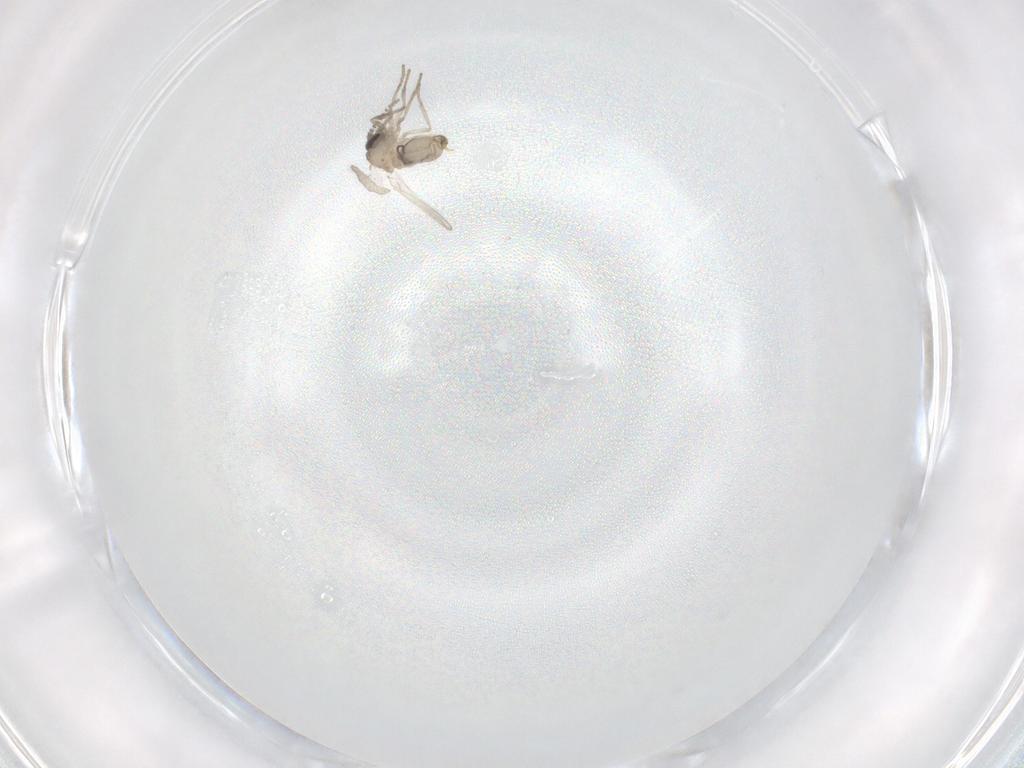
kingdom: Animalia
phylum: Arthropoda
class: Insecta
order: Diptera
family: Psychodidae
